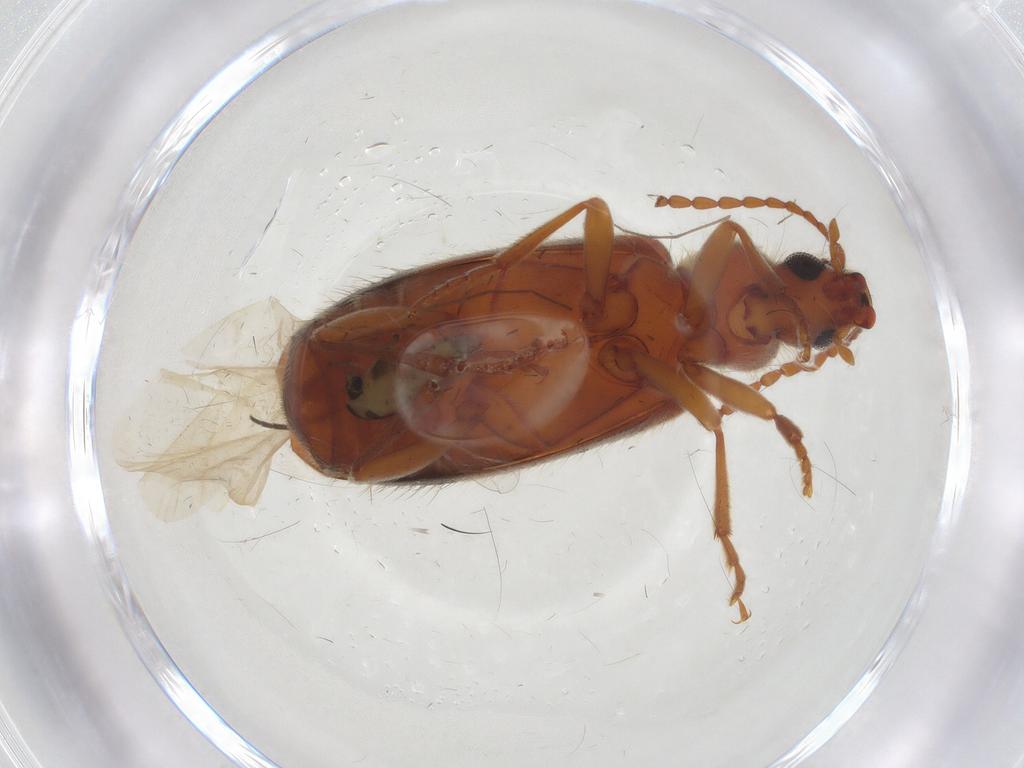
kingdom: Animalia
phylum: Arthropoda
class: Insecta
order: Coleoptera
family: Anthicidae
